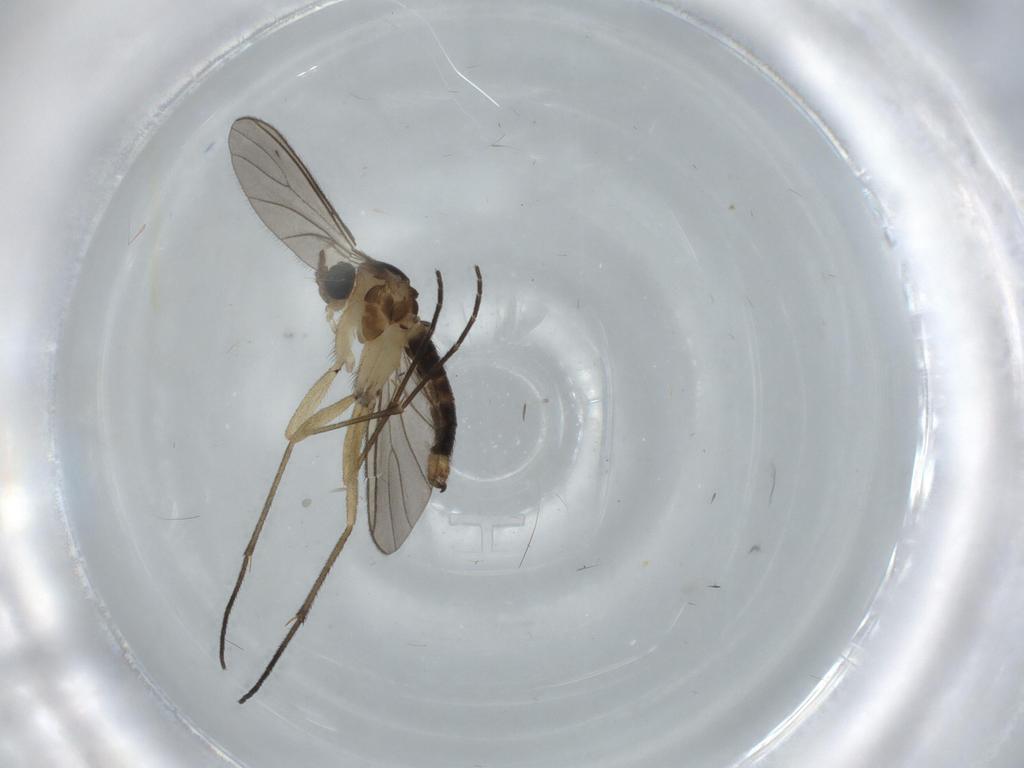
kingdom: Animalia
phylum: Arthropoda
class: Insecta
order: Diptera
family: Sciaridae
